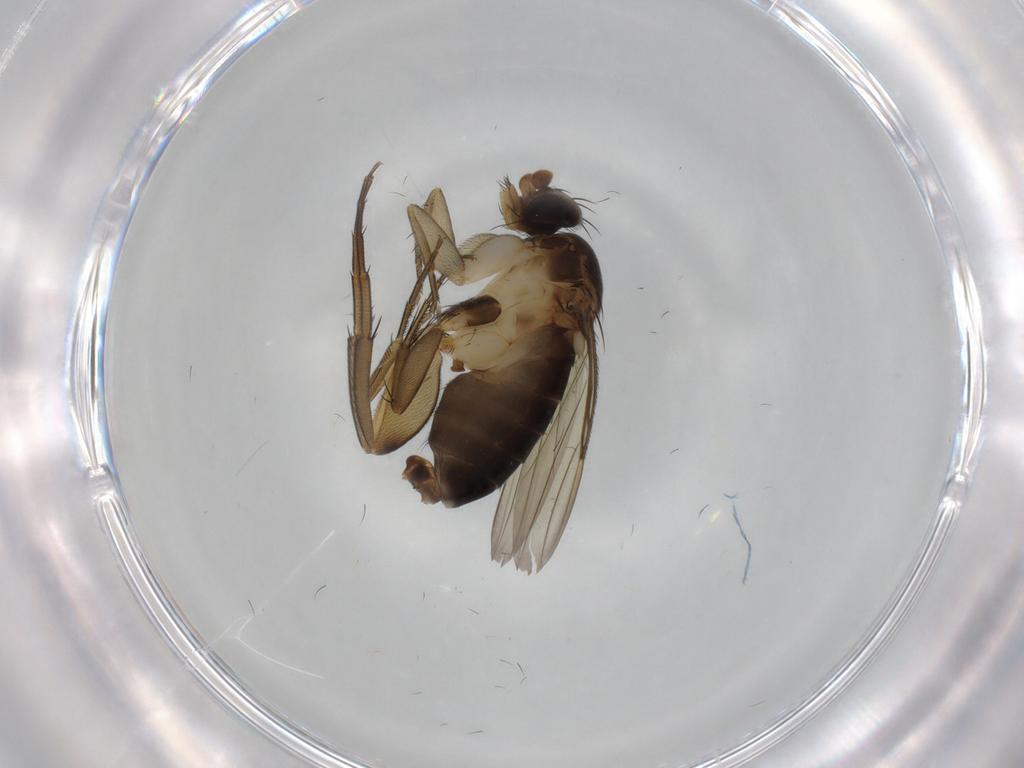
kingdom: Animalia
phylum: Arthropoda
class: Insecta
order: Diptera
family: Phoridae
